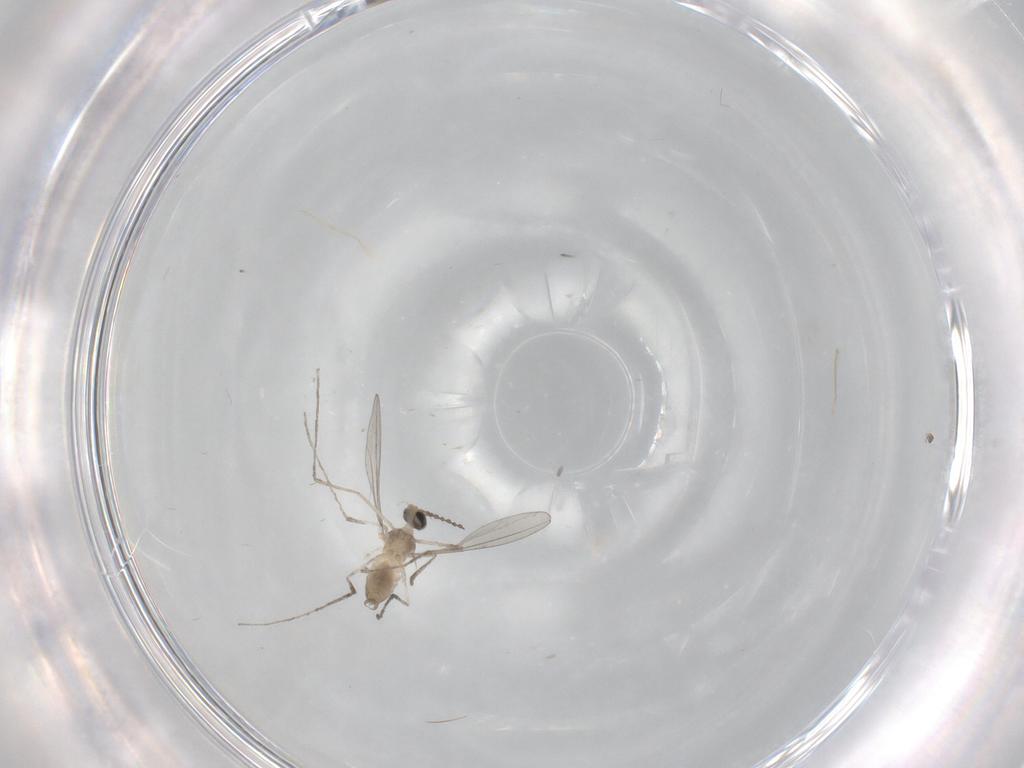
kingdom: Animalia
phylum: Arthropoda
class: Insecta
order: Diptera
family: Cecidomyiidae
